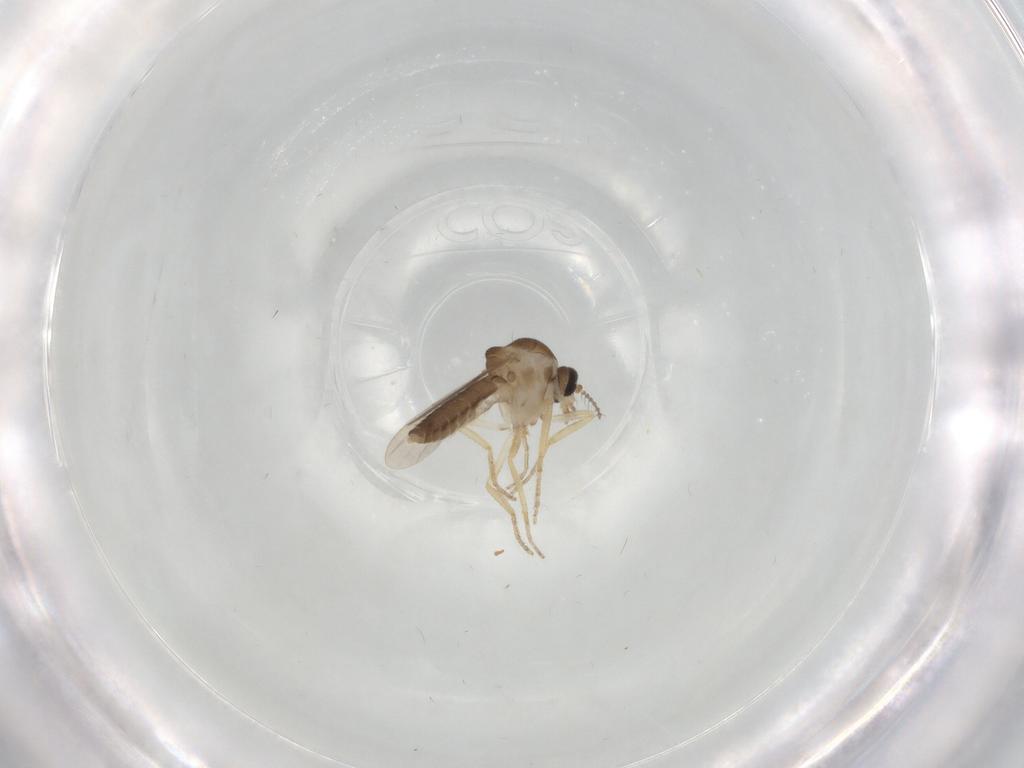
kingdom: Animalia
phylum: Arthropoda
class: Insecta
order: Diptera
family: Ceratopogonidae
